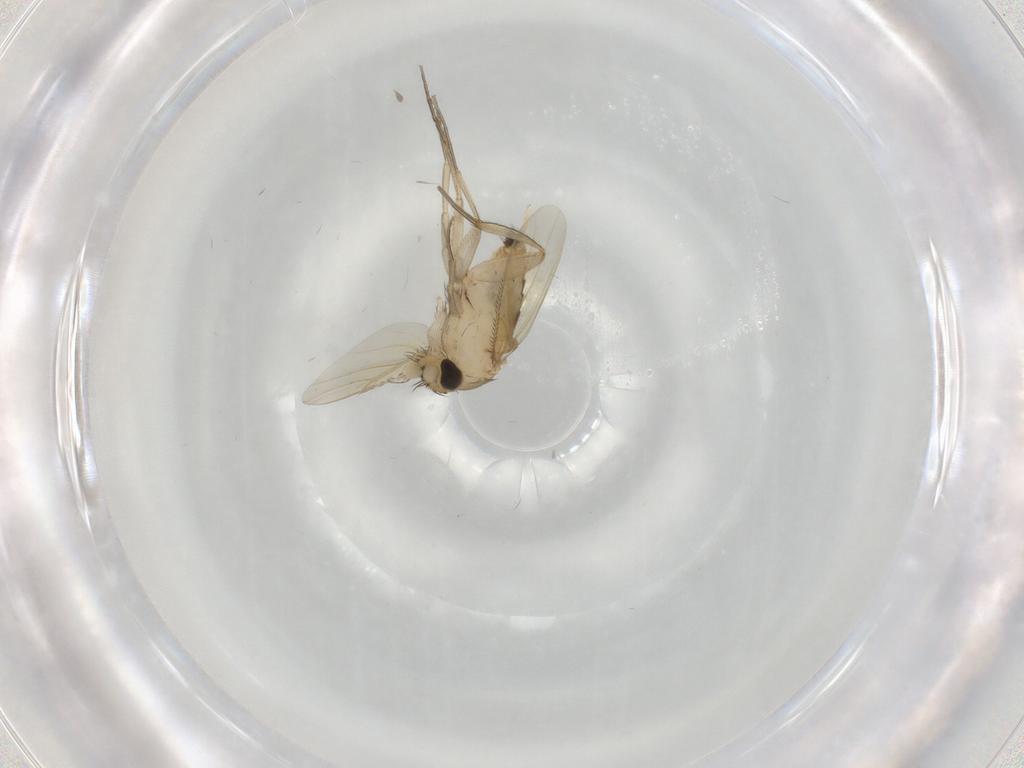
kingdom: Animalia
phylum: Arthropoda
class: Insecta
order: Diptera
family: Phoridae
